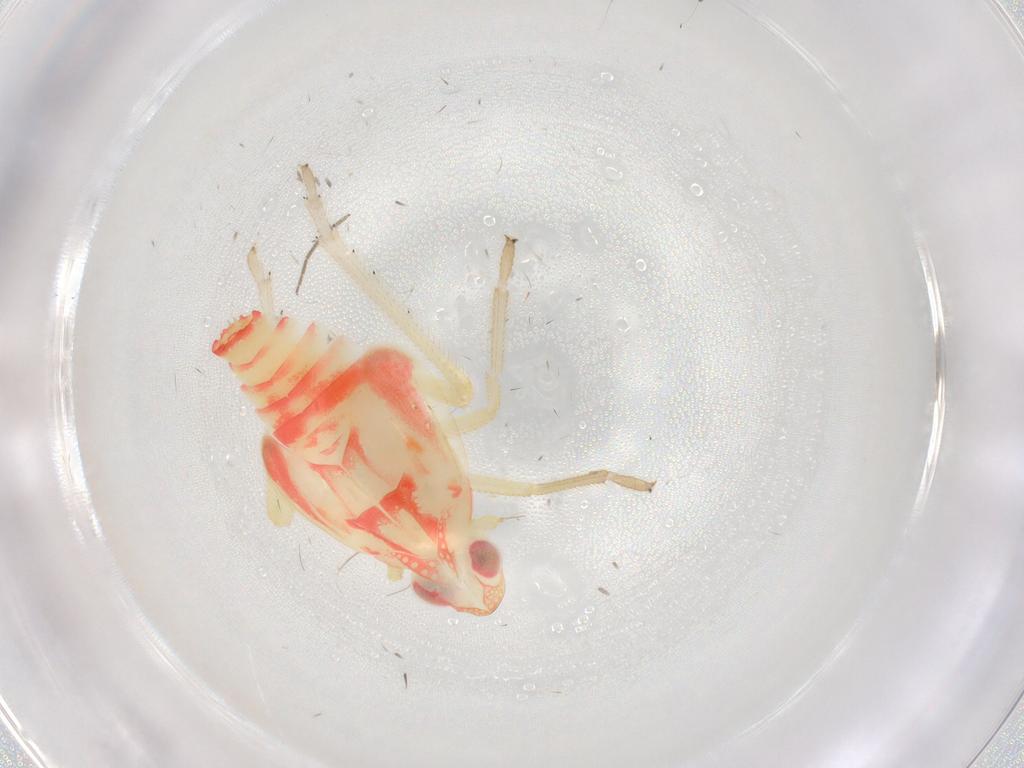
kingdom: Animalia
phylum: Arthropoda
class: Insecta
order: Hemiptera
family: Tropiduchidae
